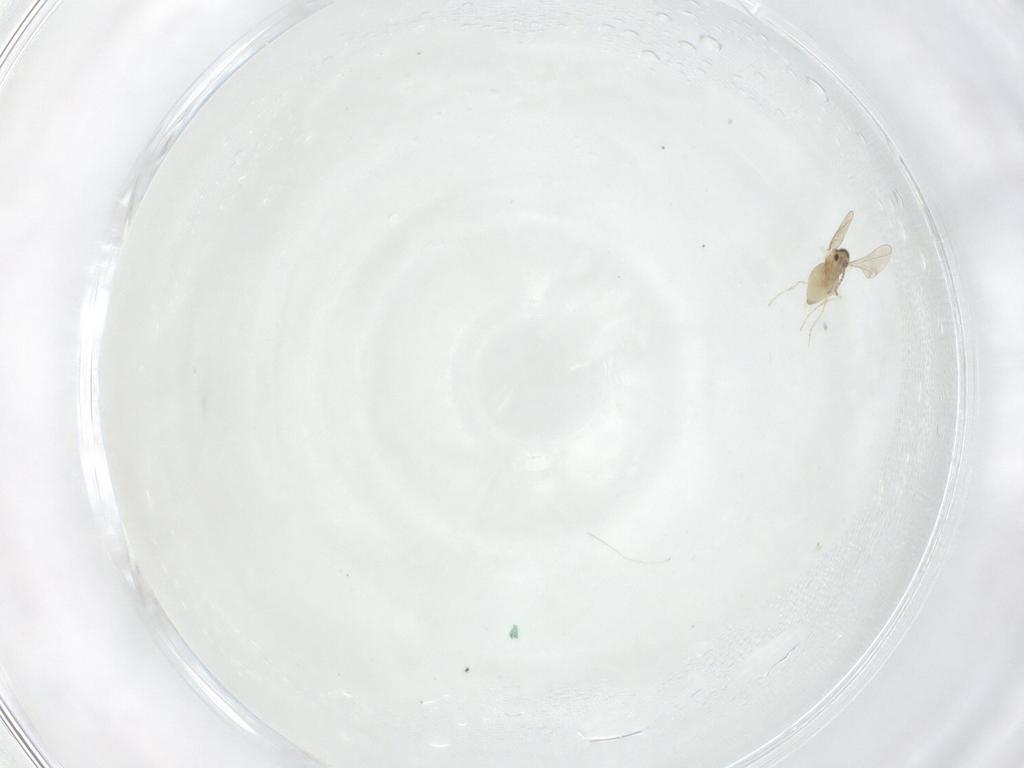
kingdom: Animalia
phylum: Arthropoda
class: Insecta
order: Diptera
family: Cecidomyiidae
